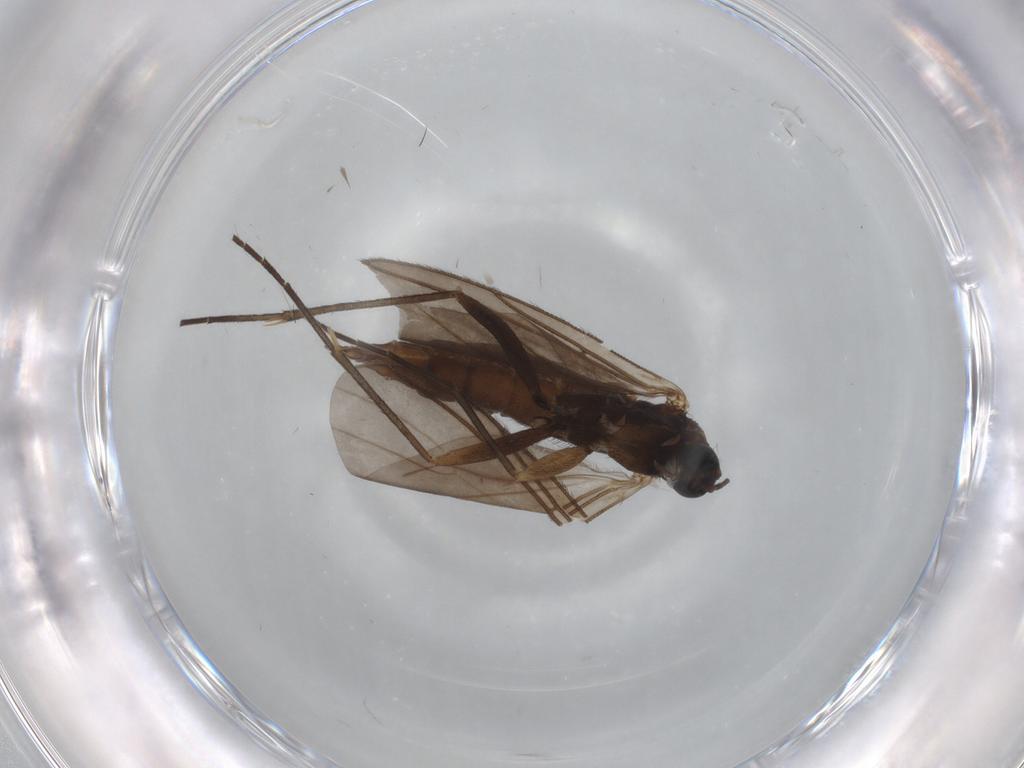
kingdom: Animalia
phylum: Arthropoda
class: Insecta
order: Diptera
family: Sciaridae
